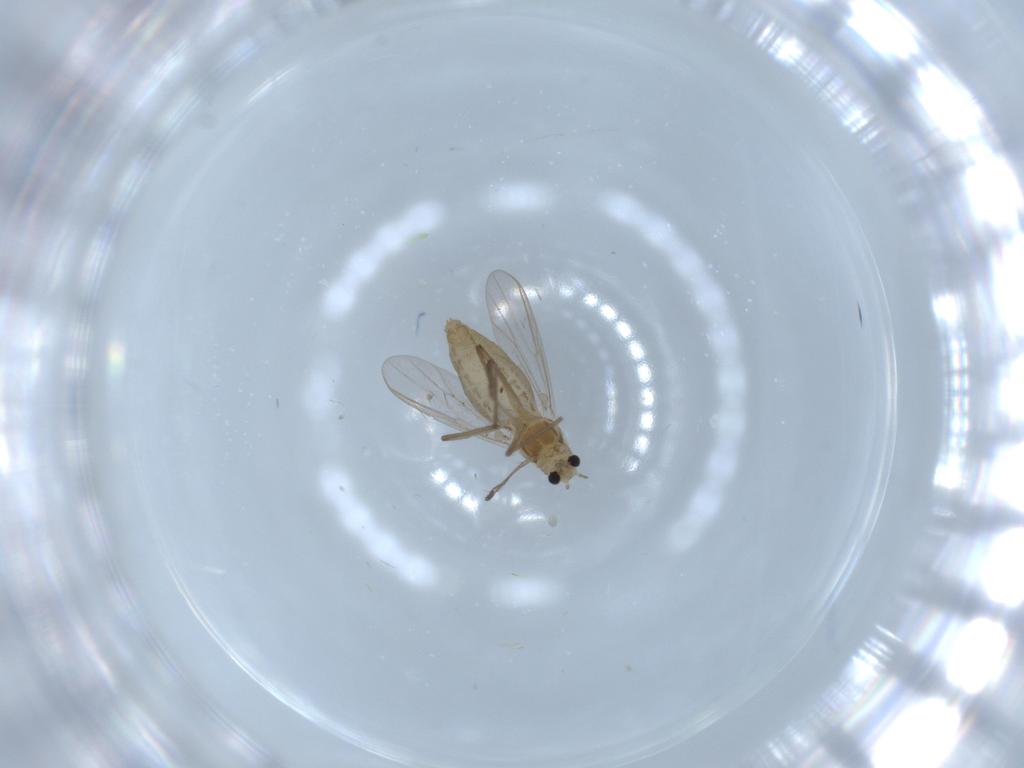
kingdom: Animalia
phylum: Arthropoda
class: Insecta
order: Diptera
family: Chironomidae
